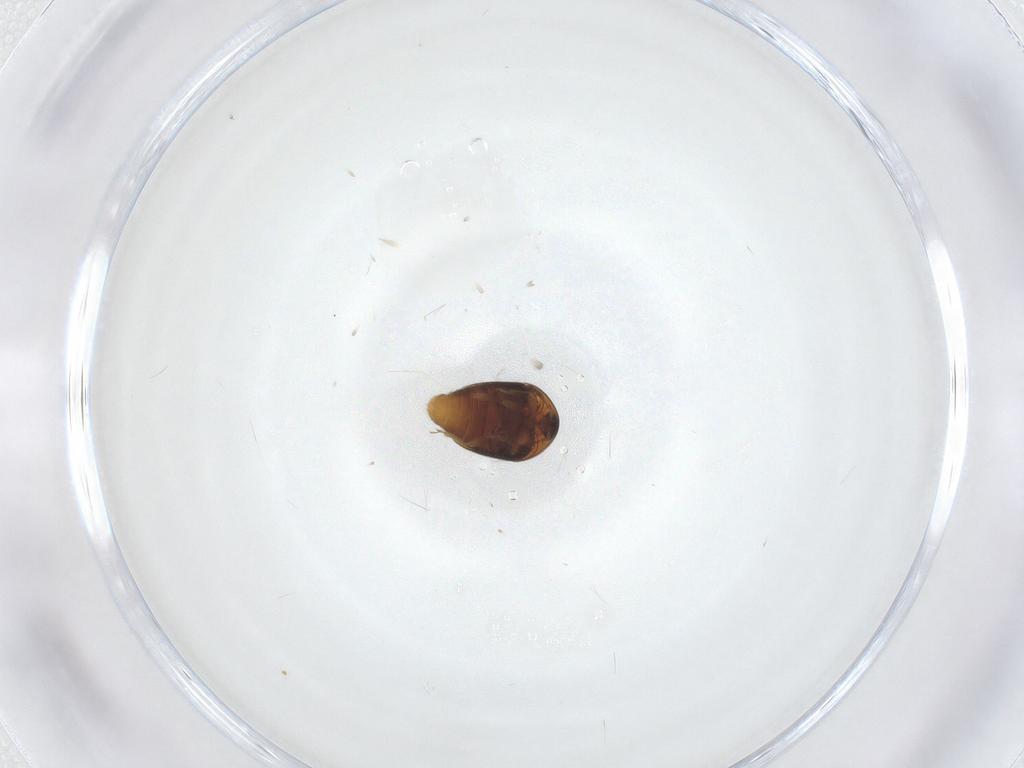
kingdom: Animalia
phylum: Arthropoda
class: Insecta
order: Coleoptera
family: Corylophidae
